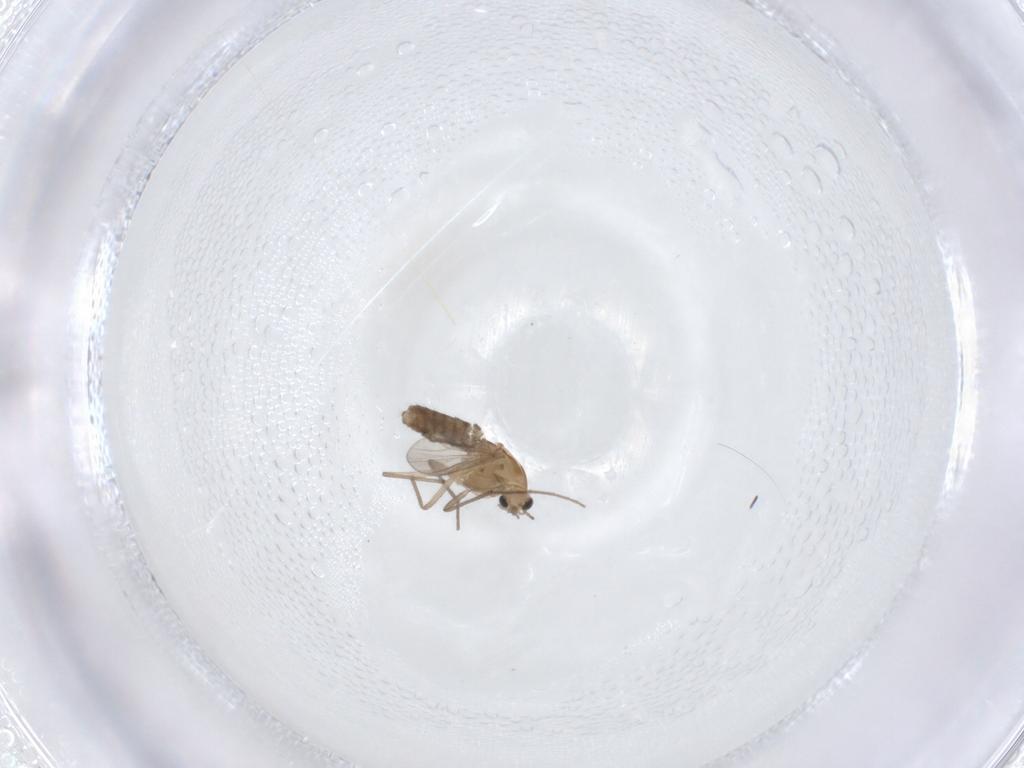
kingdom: Animalia
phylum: Arthropoda
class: Insecta
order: Diptera
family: Chironomidae
